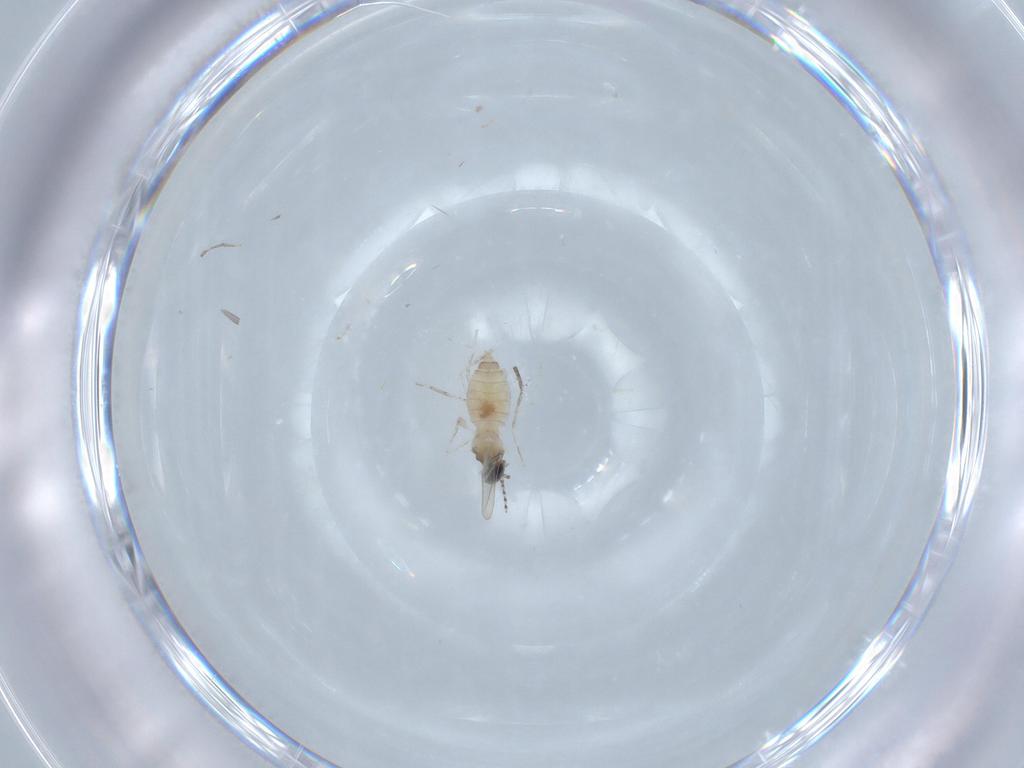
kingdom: Animalia
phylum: Arthropoda
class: Insecta
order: Diptera
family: Cecidomyiidae
